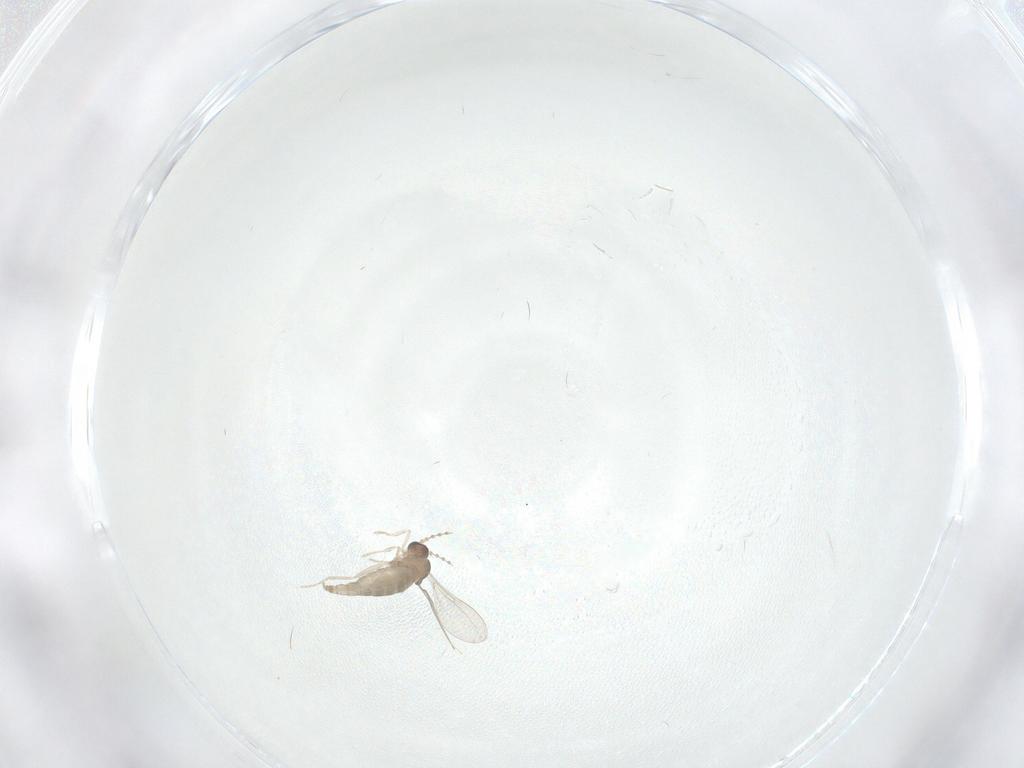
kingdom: Animalia
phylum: Arthropoda
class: Insecta
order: Diptera
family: Cecidomyiidae
